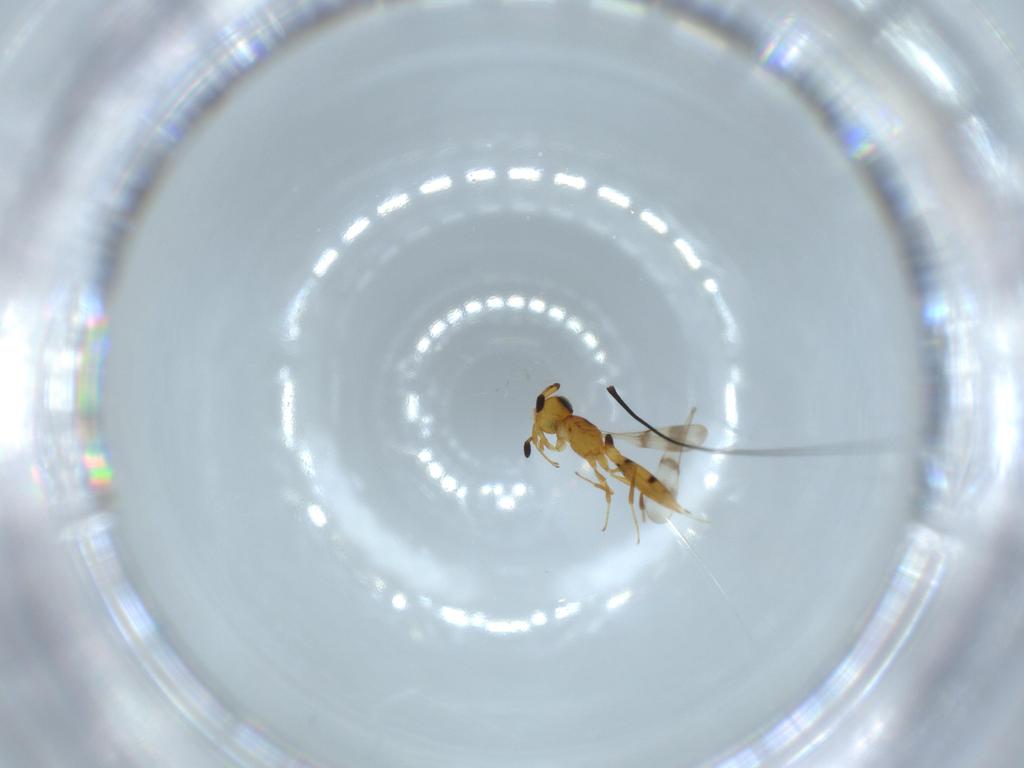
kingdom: Animalia
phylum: Arthropoda
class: Insecta
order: Hymenoptera
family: Scelionidae
